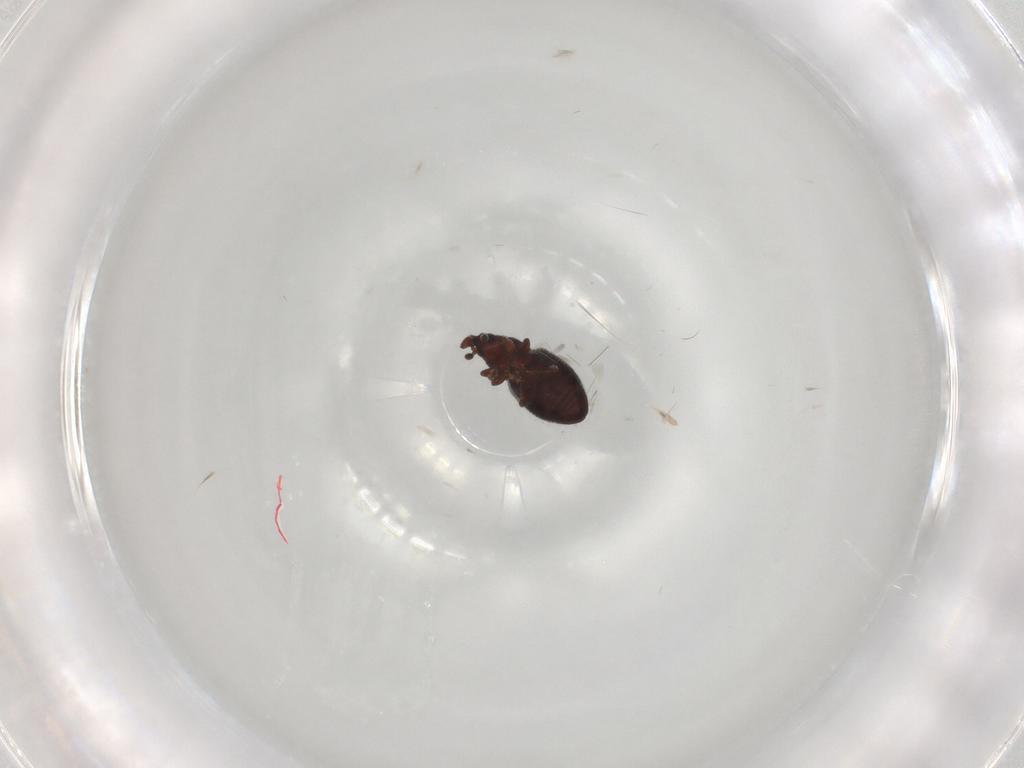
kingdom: Animalia
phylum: Arthropoda
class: Insecta
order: Coleoptera
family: Curculionidae
